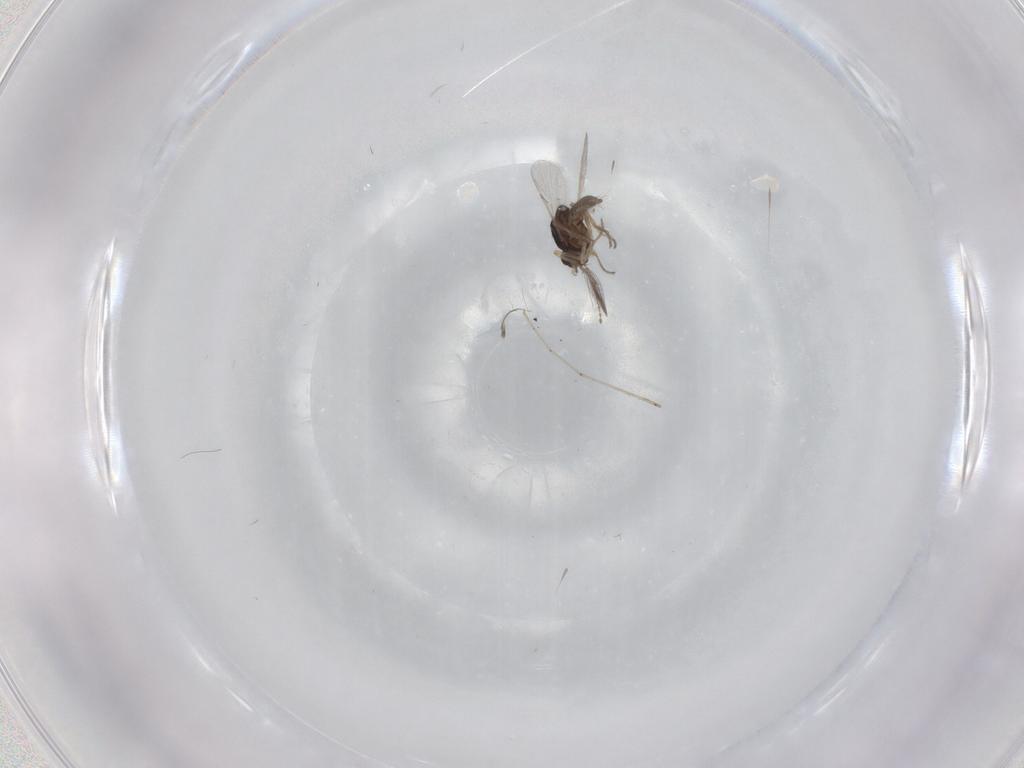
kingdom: Animalia
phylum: Arthropoda
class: Insecta
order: Diptera
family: Ceratopogonidae
